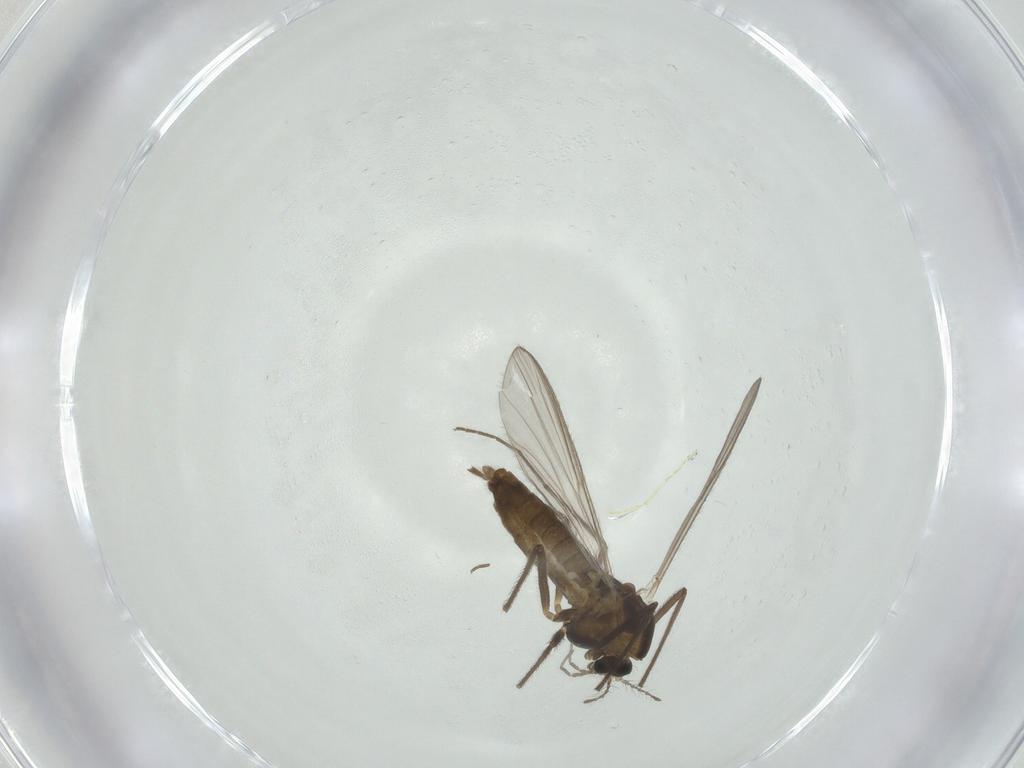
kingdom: Animalia
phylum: Arthropoda
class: Insecta
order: Diptera
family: Chironomidae
